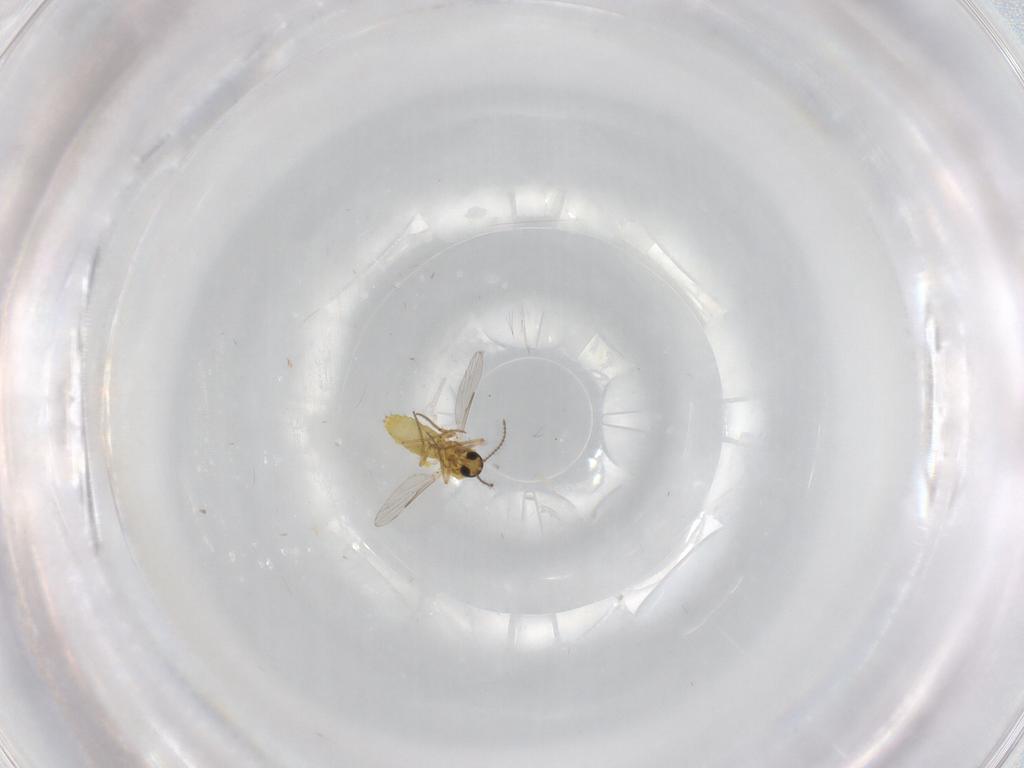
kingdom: Animalia
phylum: Arthropoda
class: Insecta
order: Diptera
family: Ceratopogonidae
